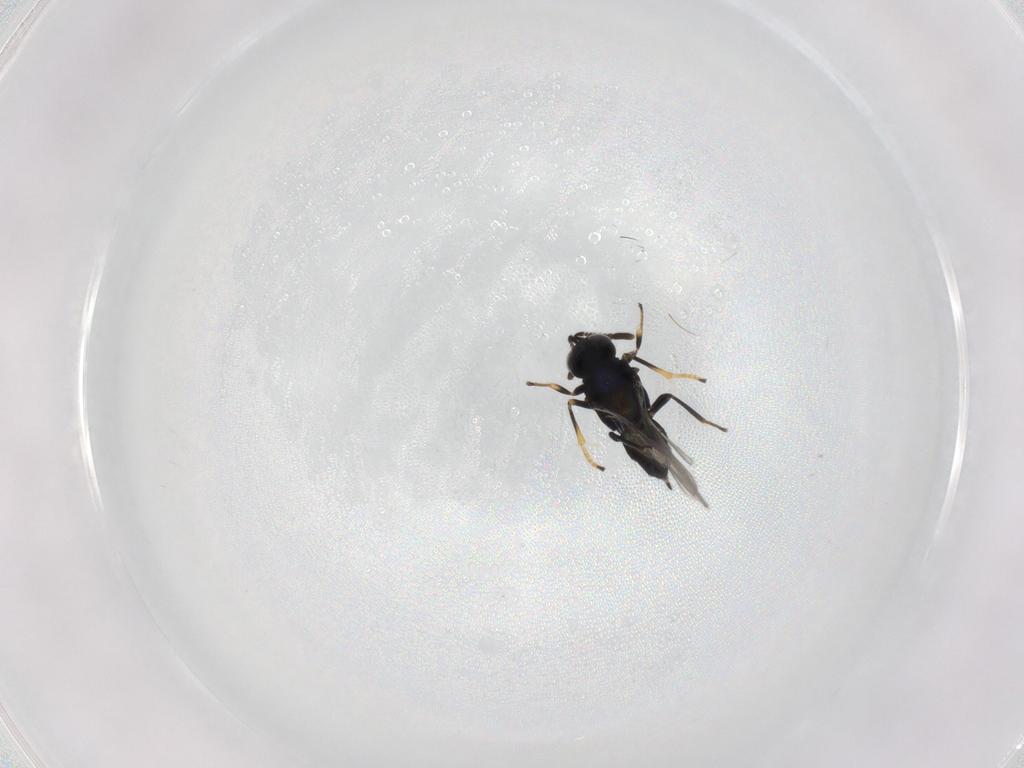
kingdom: Animalia
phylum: Arthropoda
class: Insecta
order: Hymenoptera
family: Encyrtidae
